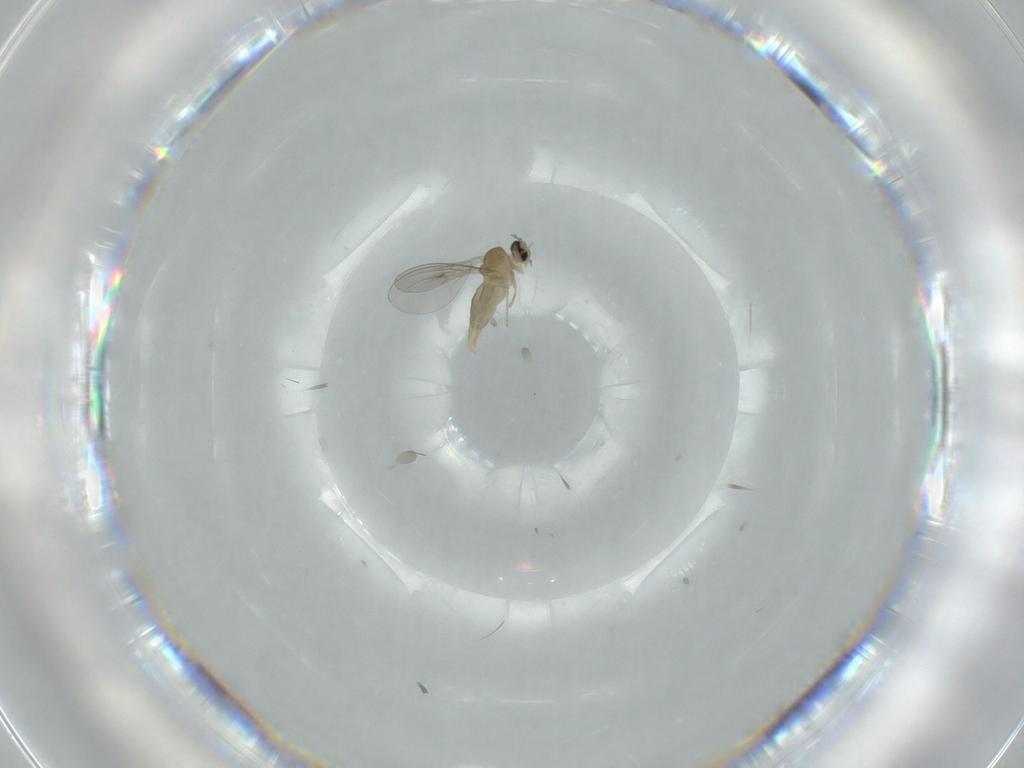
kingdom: Animalia
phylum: Arthropoda
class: Insecta
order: Diptera
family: Cecidomyiidae
